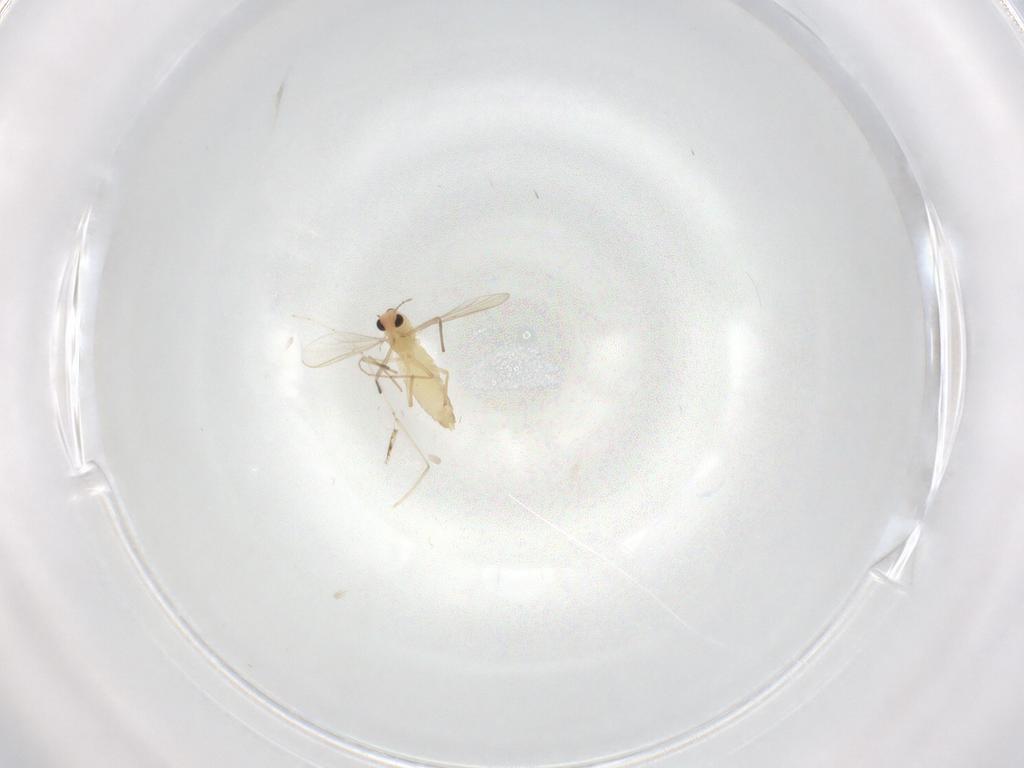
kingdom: Animalia
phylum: Arthropoda
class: Insecta
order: Diptera
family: Chironomidae
